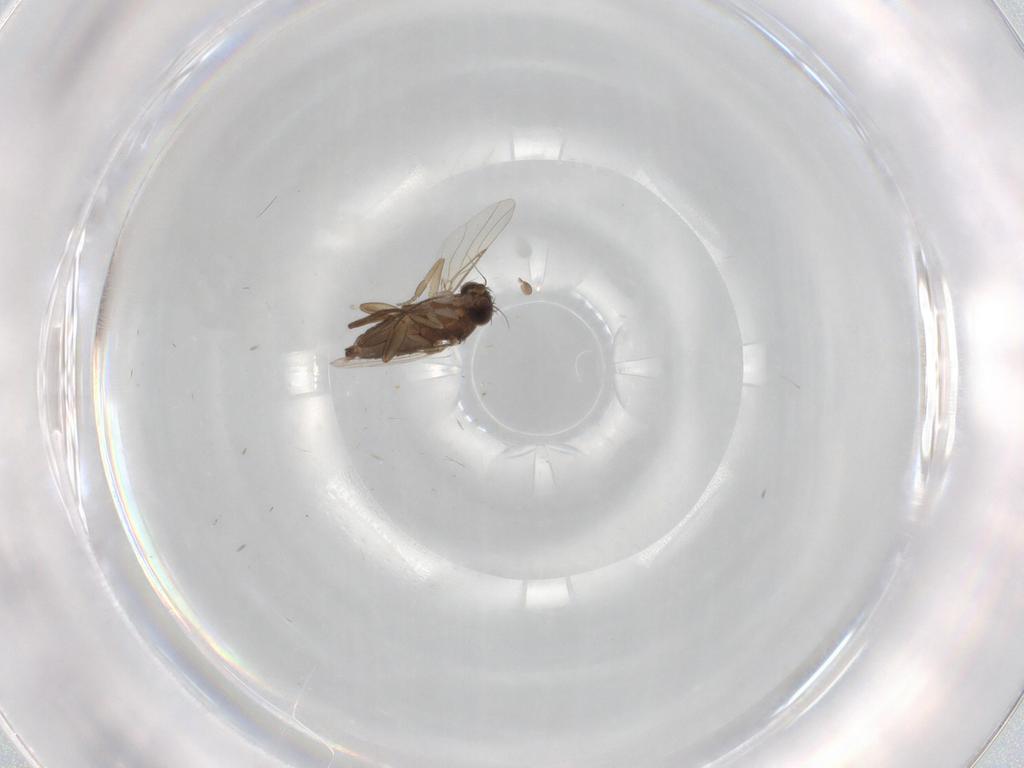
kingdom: Animalia
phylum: Arthropoda
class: Insecta
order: Diptera
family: Phoridae
